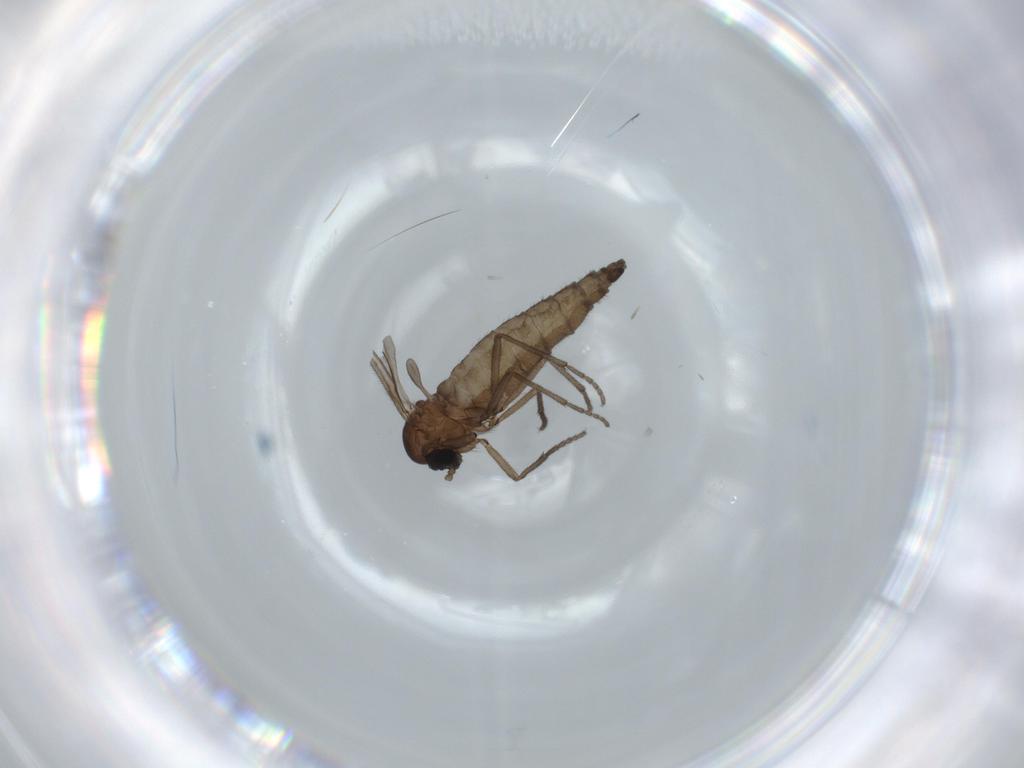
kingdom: Animalia
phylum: Arthropoda
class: Insecta
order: Diptera
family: Sciaridae
